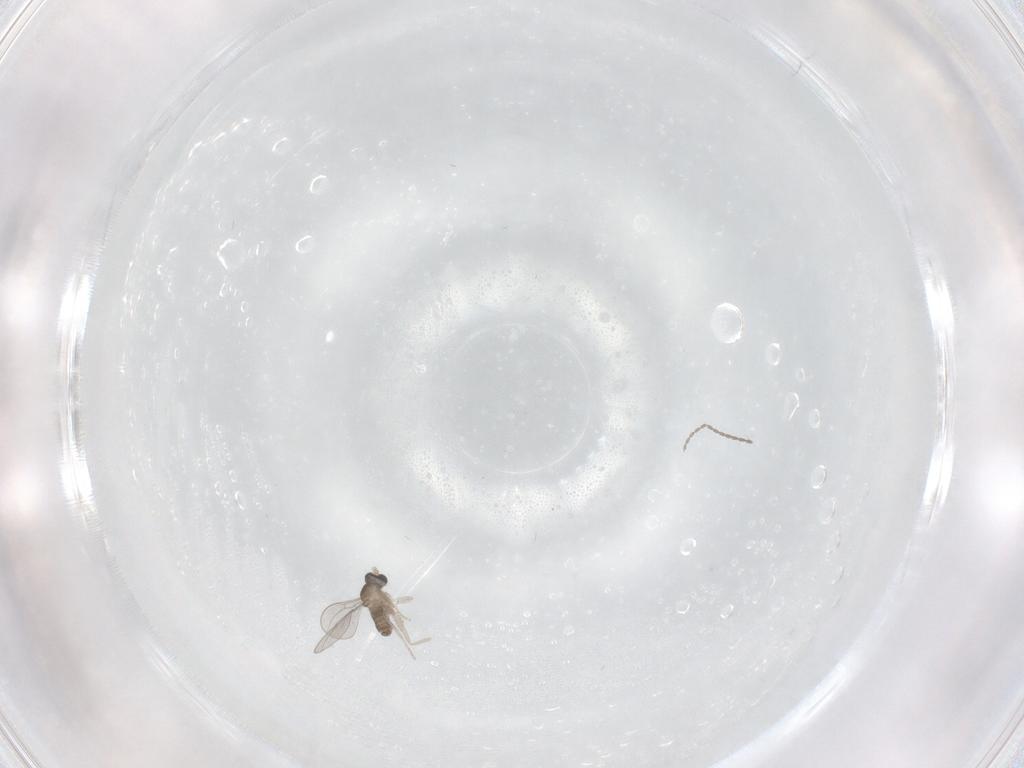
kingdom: Animalia
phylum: Arthropoda
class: Insecta
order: Diptera
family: Cecidomyiidae
